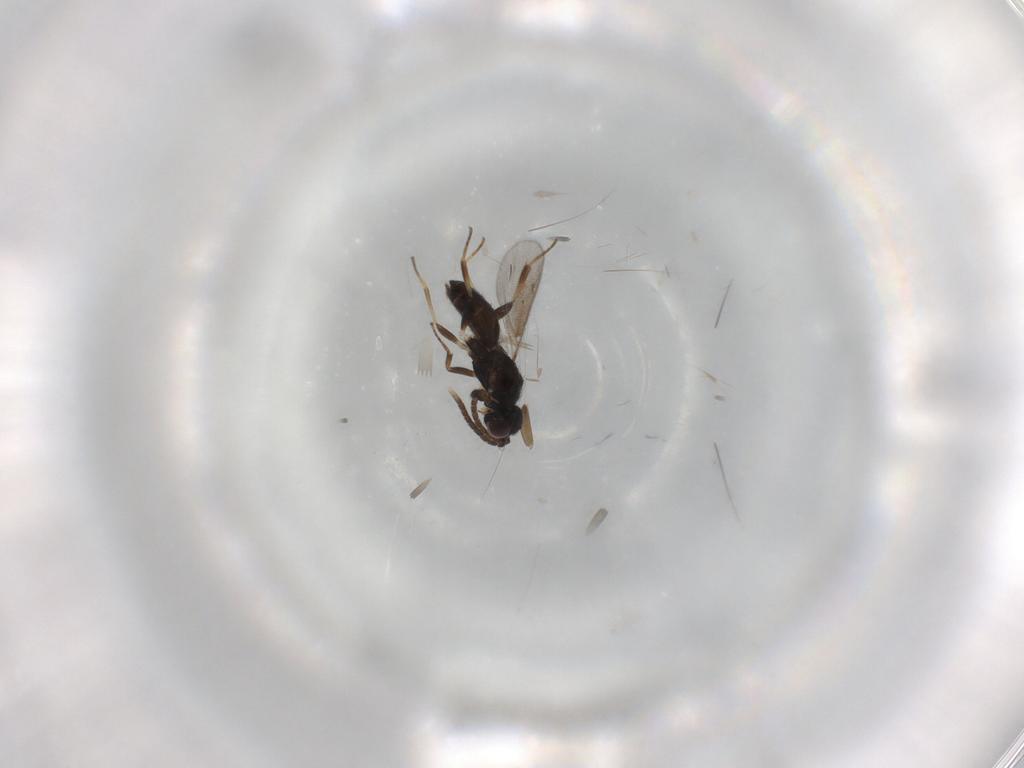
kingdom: Animalia
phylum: Arthropoda
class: Insecta
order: Hymenoptera
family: Eupelmidae
